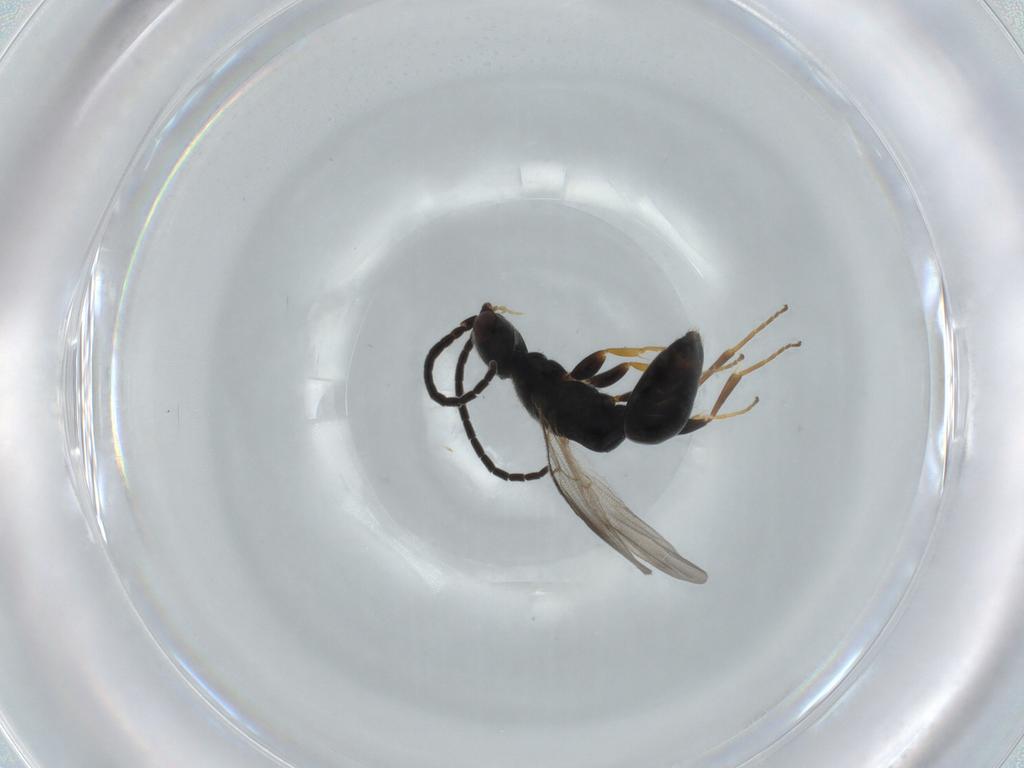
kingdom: Animalia
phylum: Arthropoda
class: Insecta
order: Hymenoptera
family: Bethylidae
